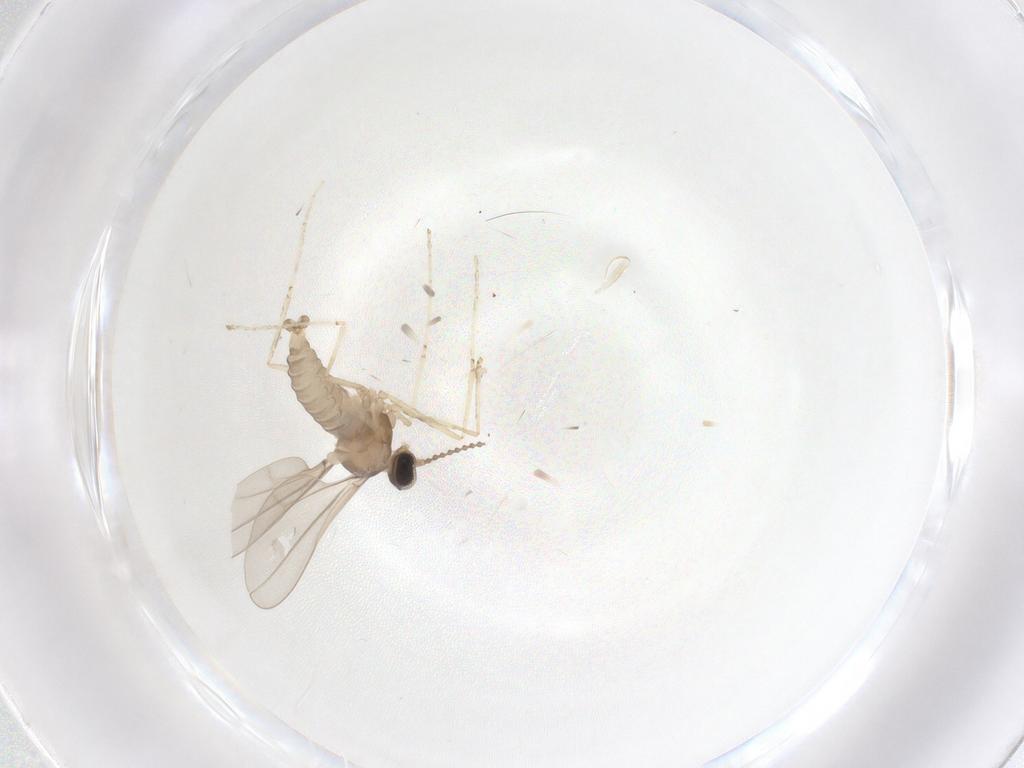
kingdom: Animalia
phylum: Arthropoda
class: Insecta
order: Diptera
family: Cecidomyiidae
